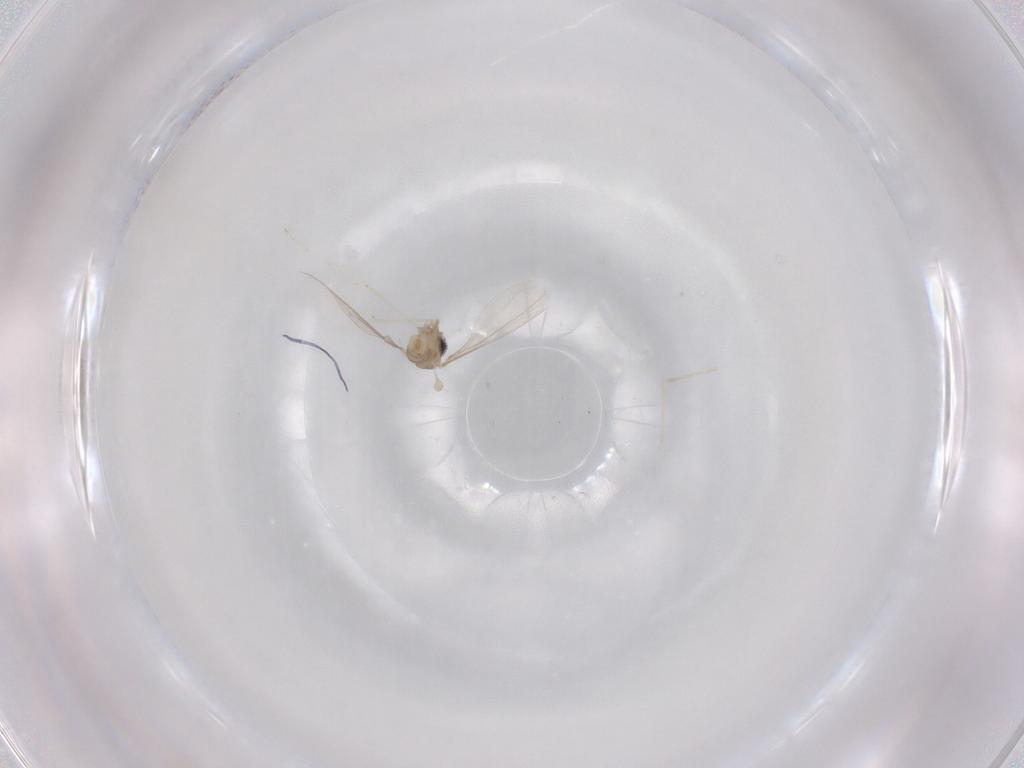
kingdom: Animalia
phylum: Arthropoda
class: Insecta
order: Diptera
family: Cecidomyiidae
